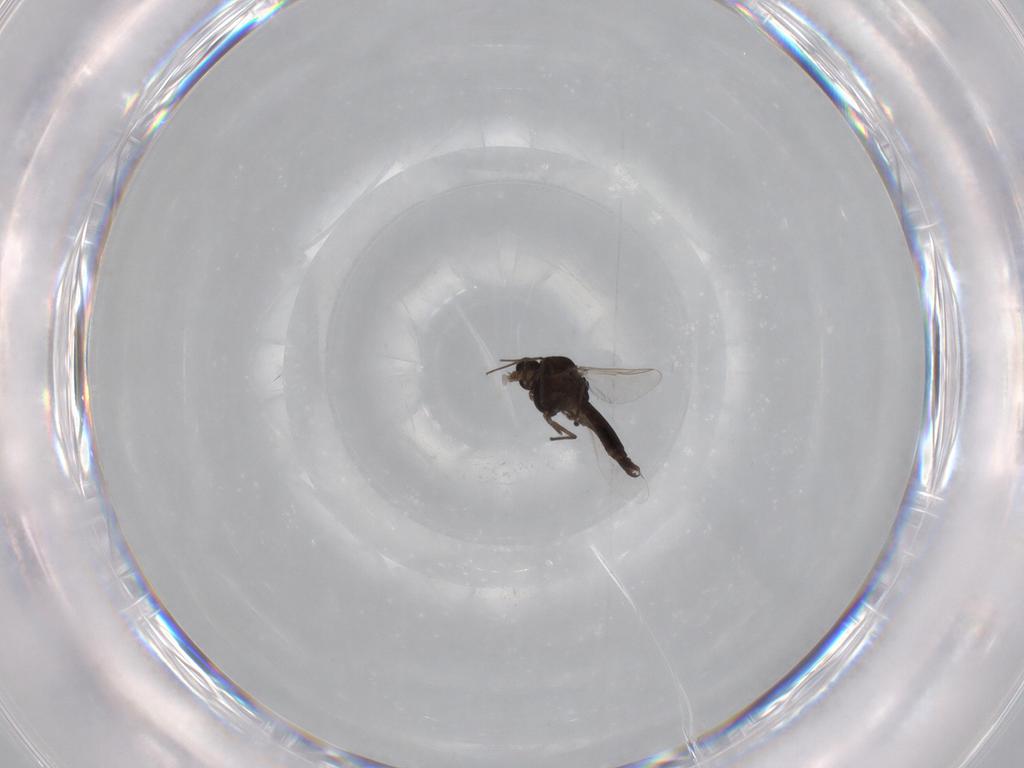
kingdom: Animalia
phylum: Arthropoda
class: Insecta
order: Diptera
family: Chironomidae
